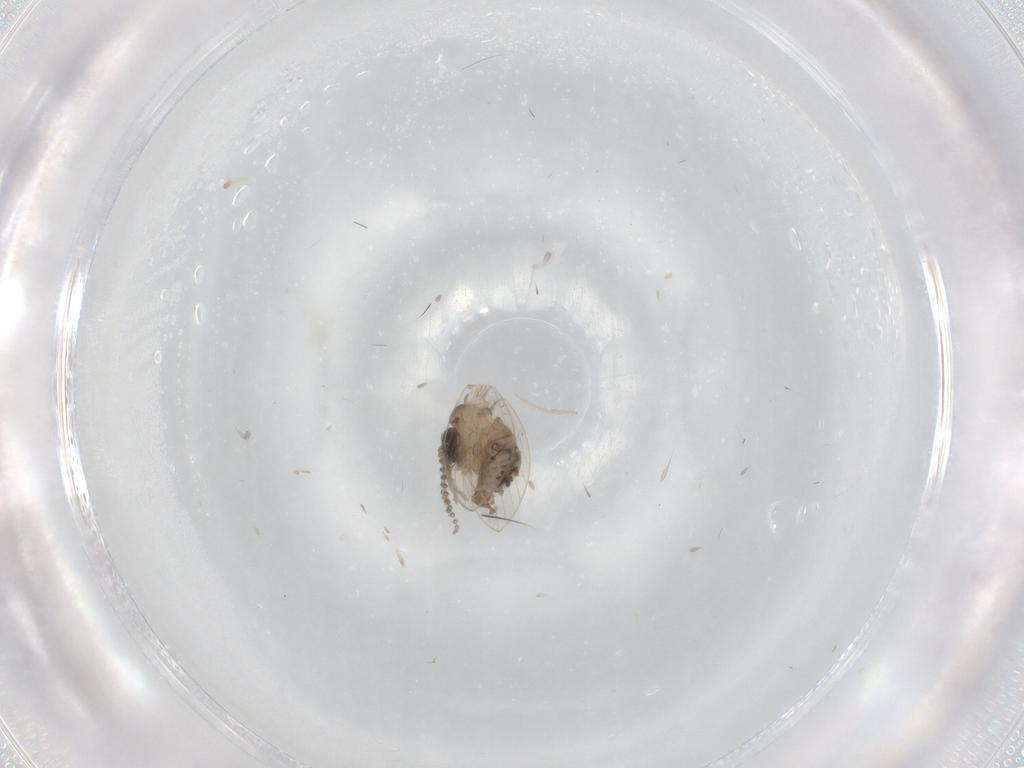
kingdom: Animalia
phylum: Arthropoda
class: Insecta
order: Diptera
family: Psychodidae
